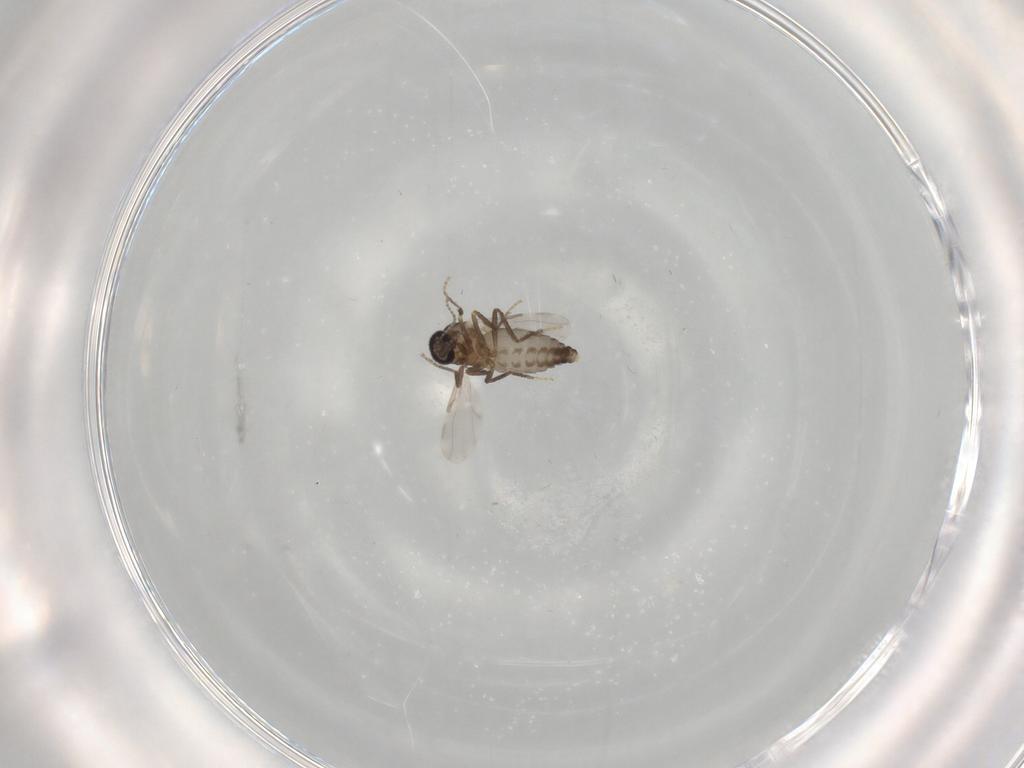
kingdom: Animalia
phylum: Arthropoda
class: Insecta
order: Diptera
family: Ceratopogonidae
